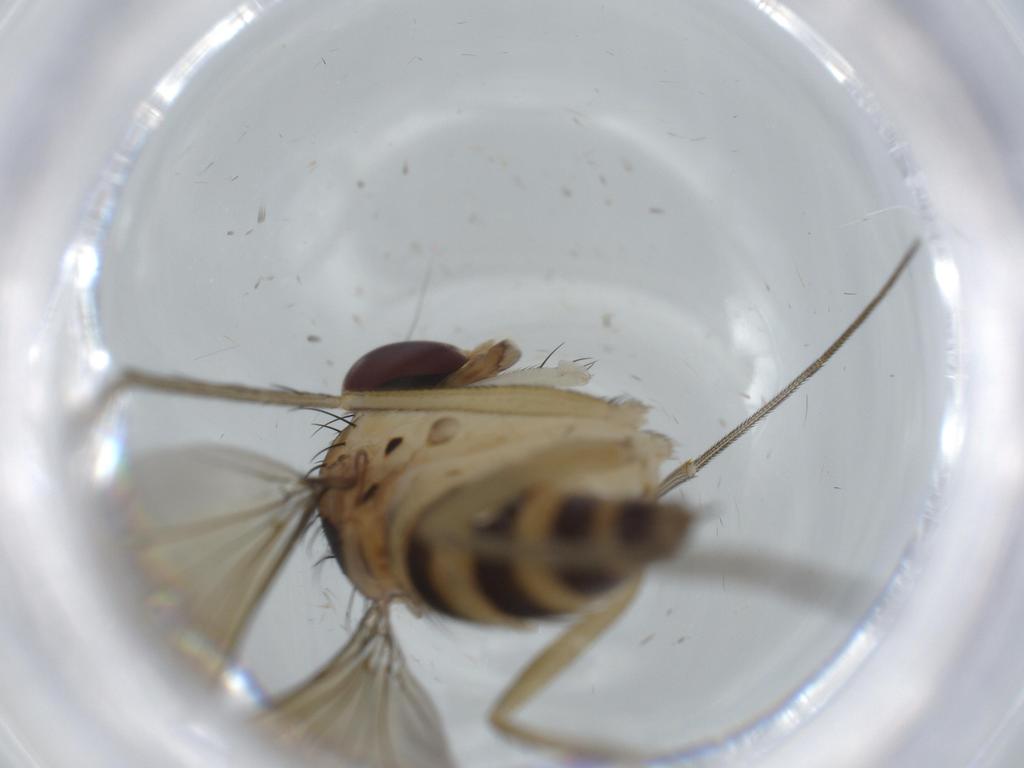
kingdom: Animalia
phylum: Arthropoda
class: Insecta
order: Diptera
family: Dolichopodidae
